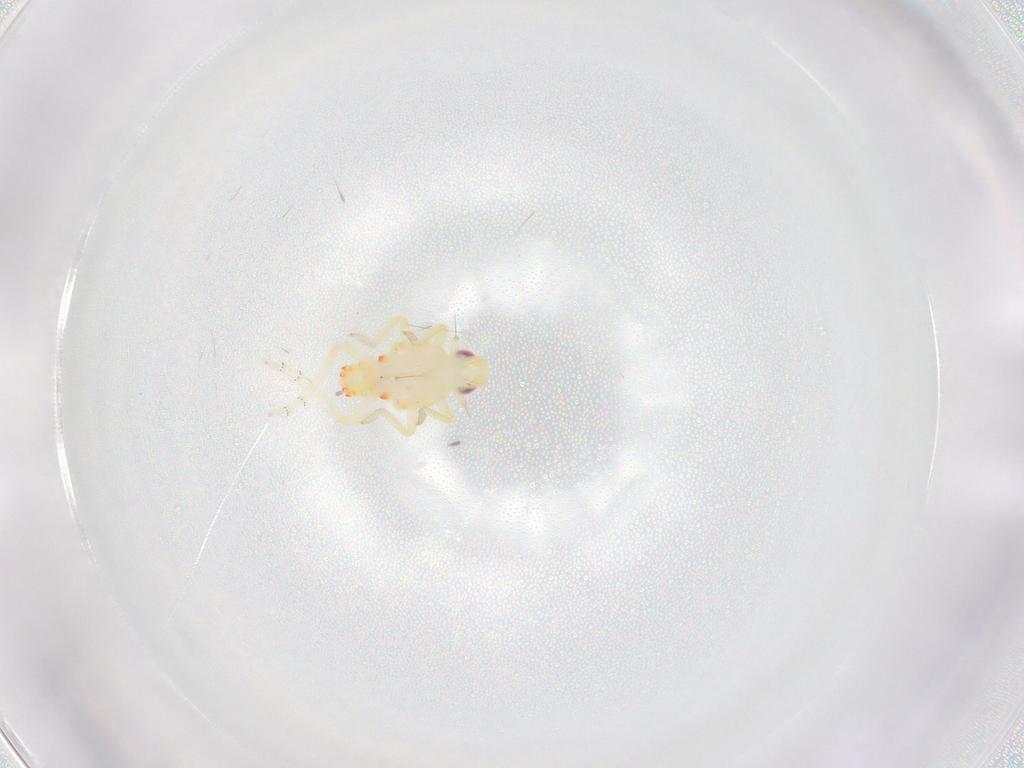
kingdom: Animalia
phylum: Arthropoda
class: Insecta
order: Hemiptera
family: Tropiduchidae
